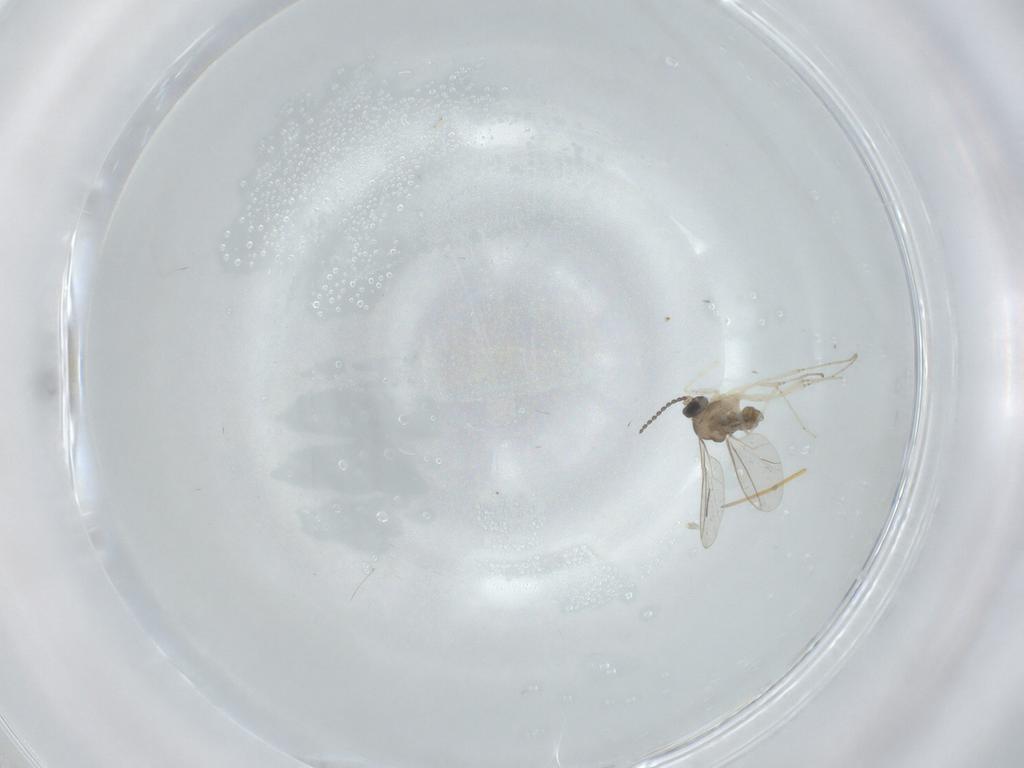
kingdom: Animalia
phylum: Arthropoda
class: Insecta
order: Diptera
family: Cecidomyiidae
